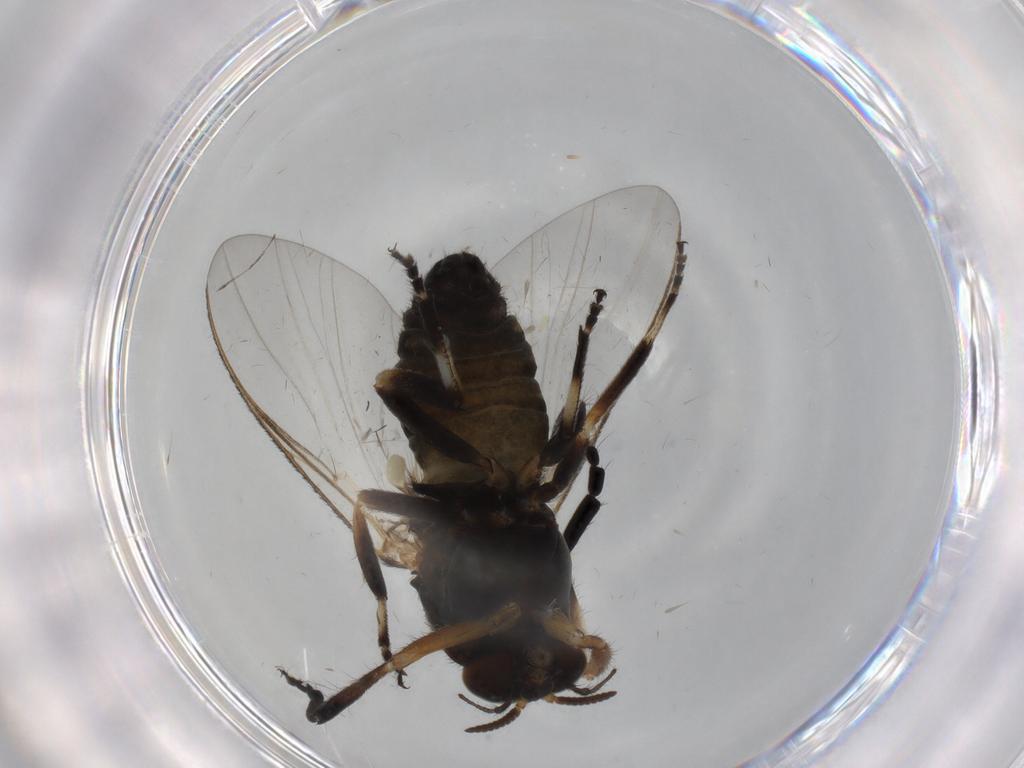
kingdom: Animalia
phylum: Arthropoda
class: Insecta
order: Diptera
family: Chironomidae
